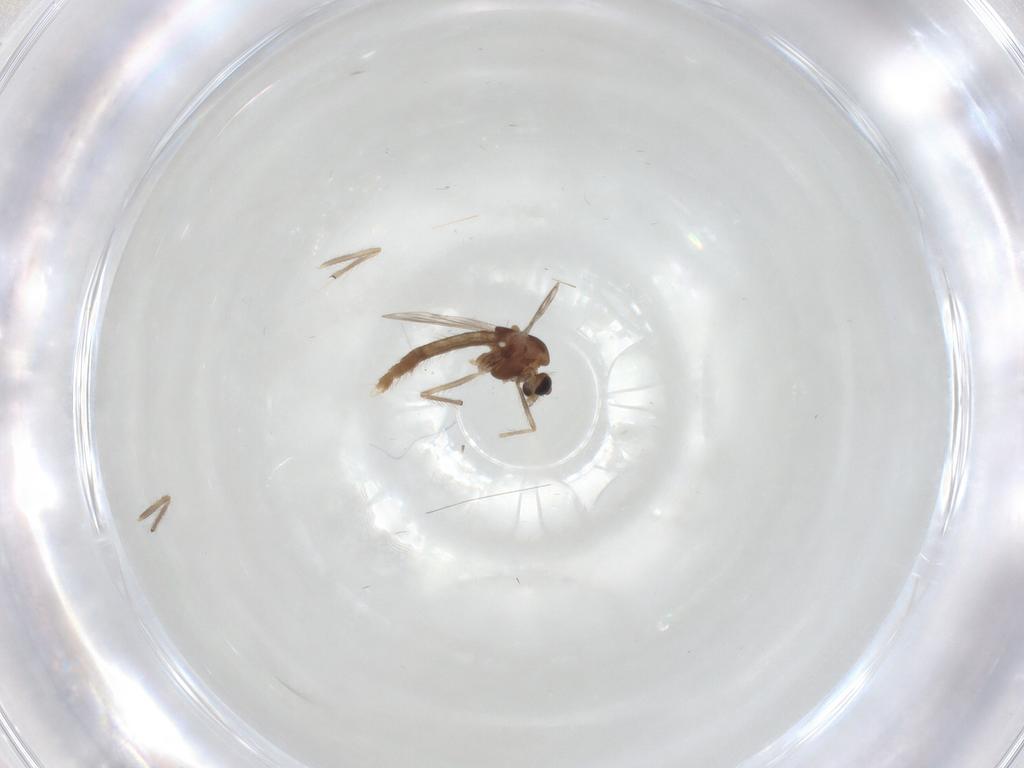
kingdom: Animalia
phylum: Arthropoda
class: Insecta
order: Diptera
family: Chironomidae
